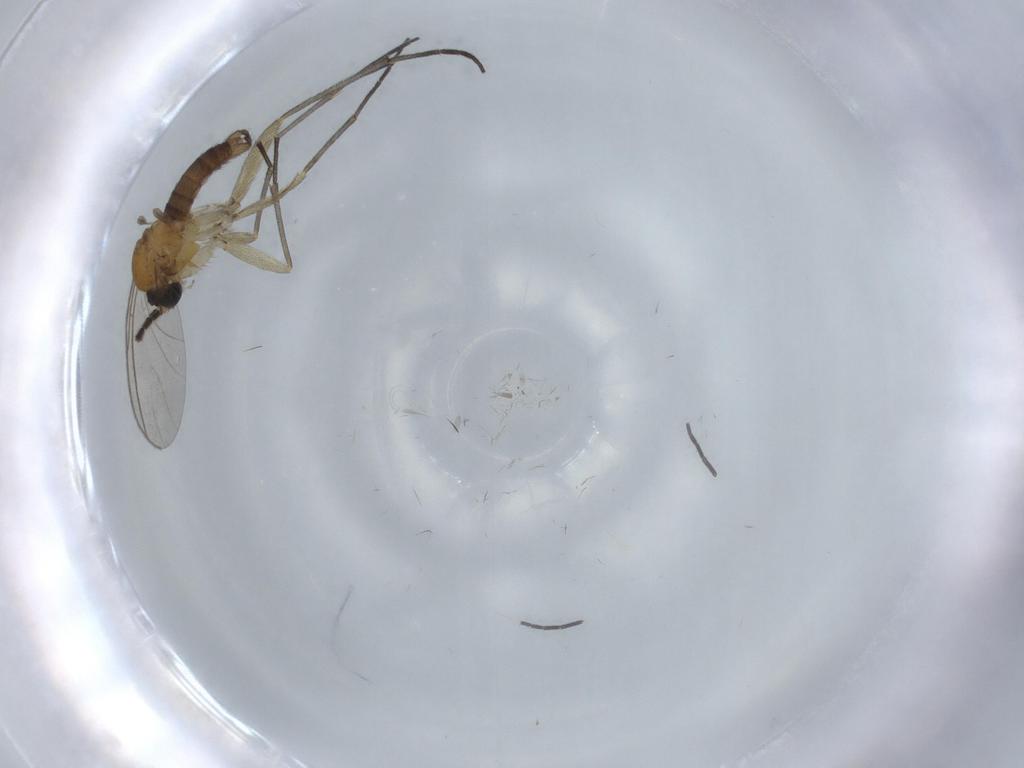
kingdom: Animalia
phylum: Arthropoda
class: Insecta
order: Diptera
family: Sciaridae
